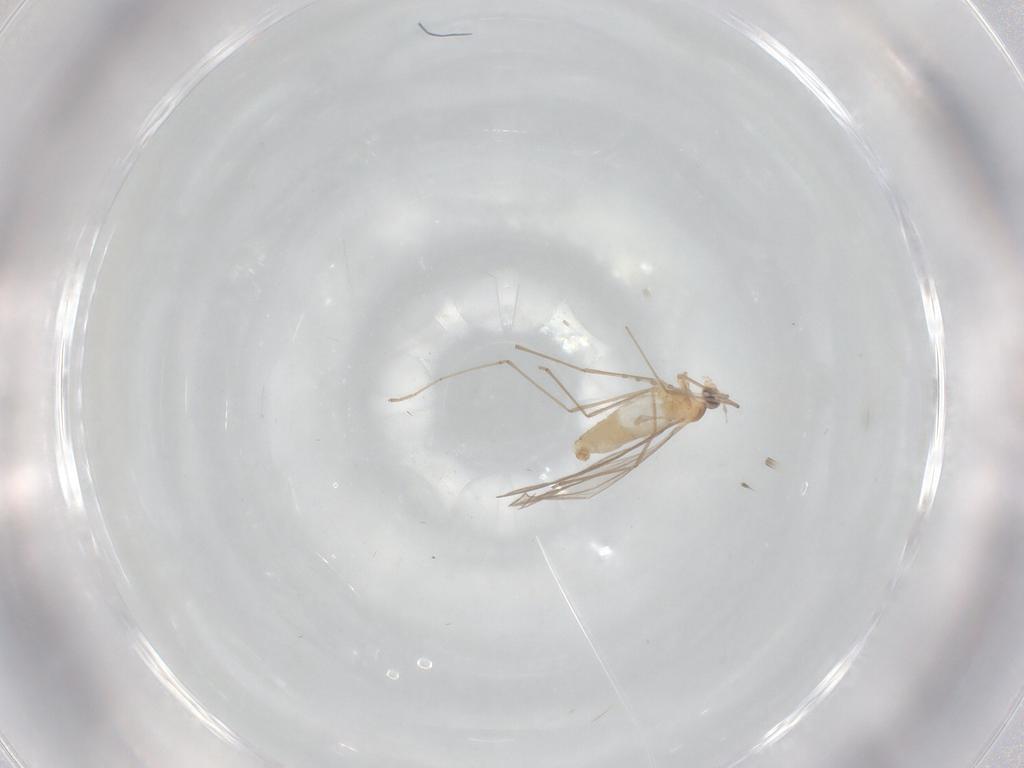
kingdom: Animalia
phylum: Arthropoda
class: Insecta
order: Diptera
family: Cecidomyiidae
